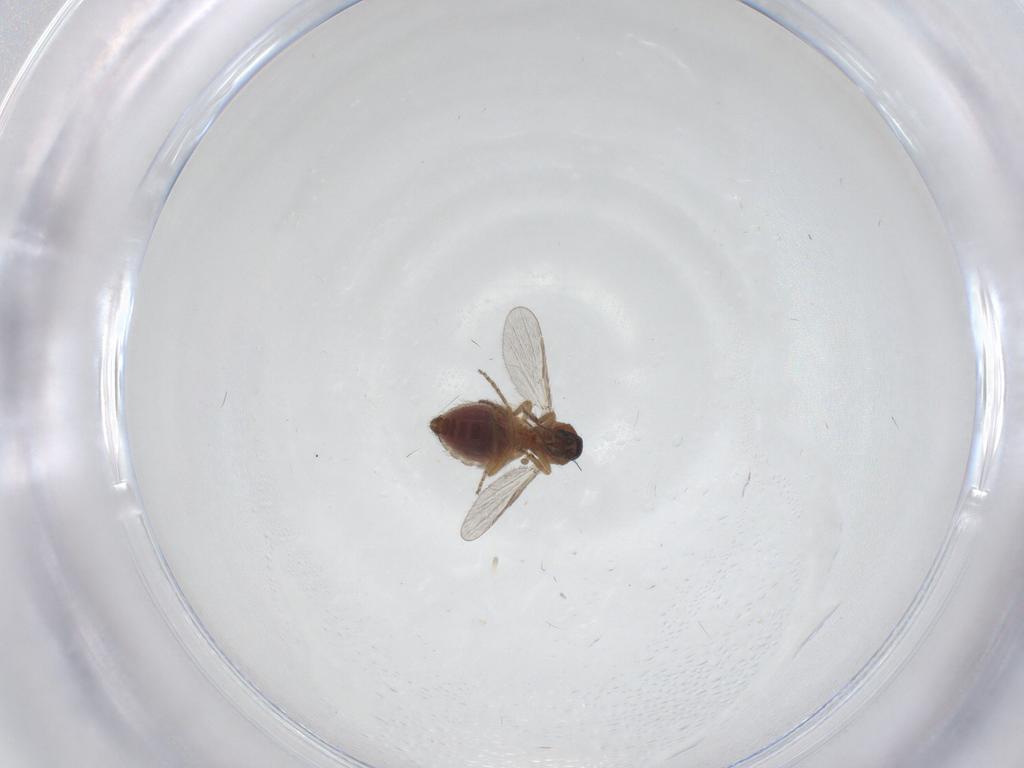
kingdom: Animalia
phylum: Arthropoda
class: Insecta
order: Diptera
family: Ceratopogonidae
